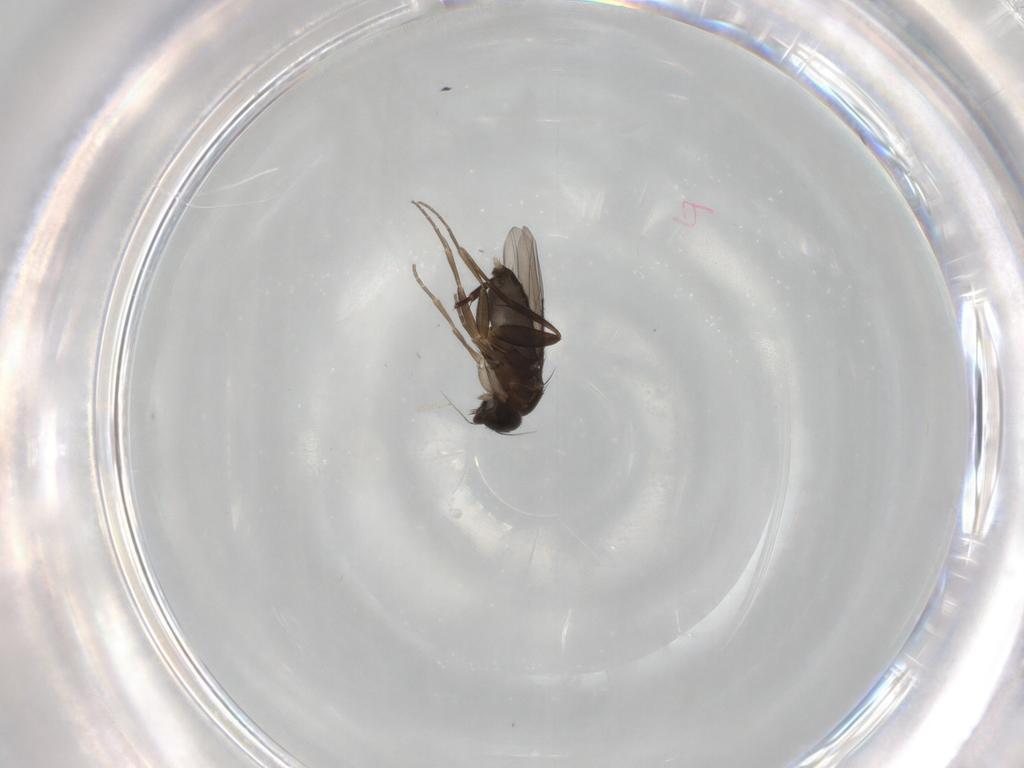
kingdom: Animalia
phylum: Arthropoda
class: Insecta
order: Diptera
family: Phoridae
